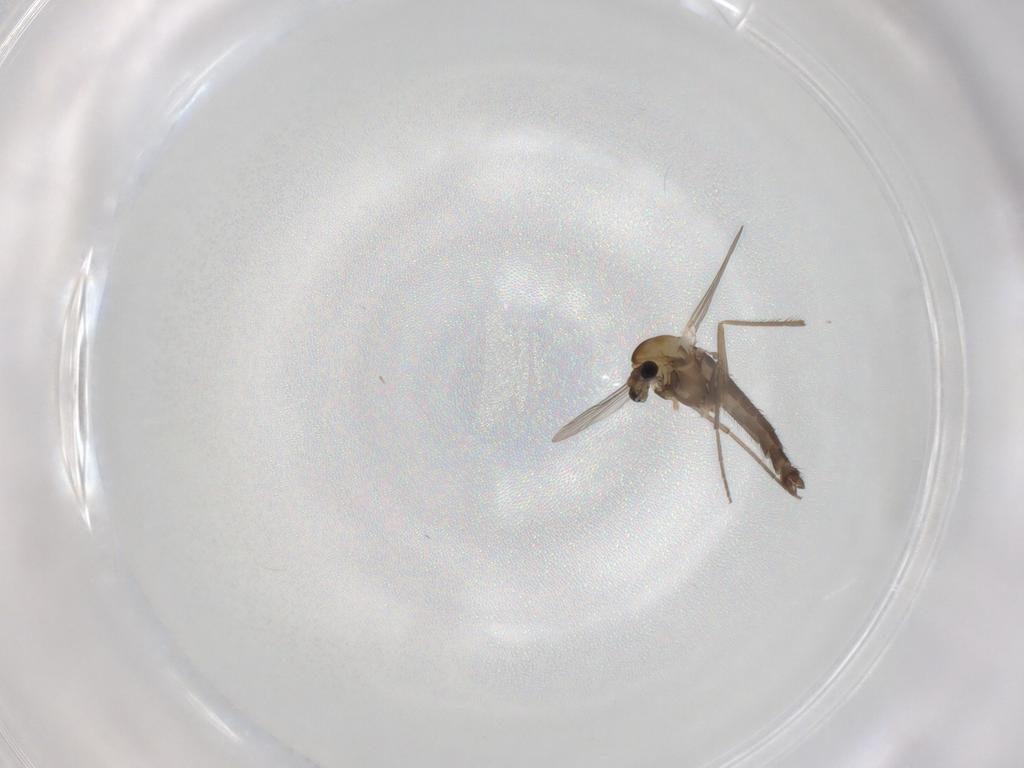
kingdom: Animalia
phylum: Arthropoda
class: Insecta
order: Diptera
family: Chironomidae
